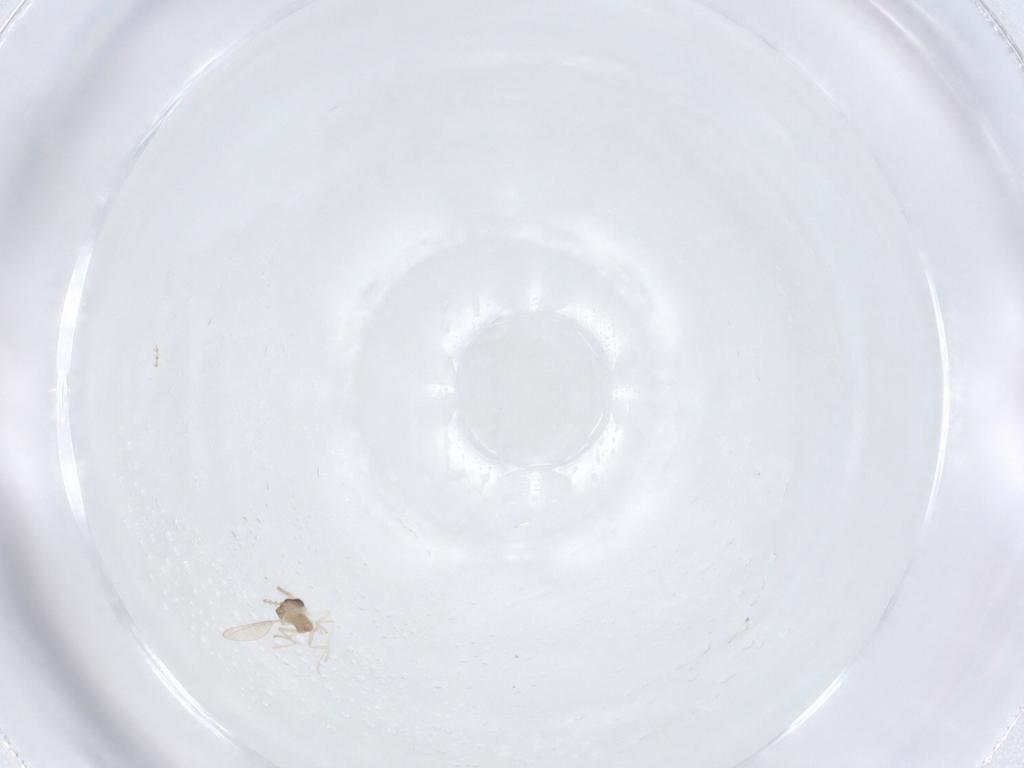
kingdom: Animalia
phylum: Arthropoda
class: Insecta
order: Diptera
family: Cecidomyiidae
